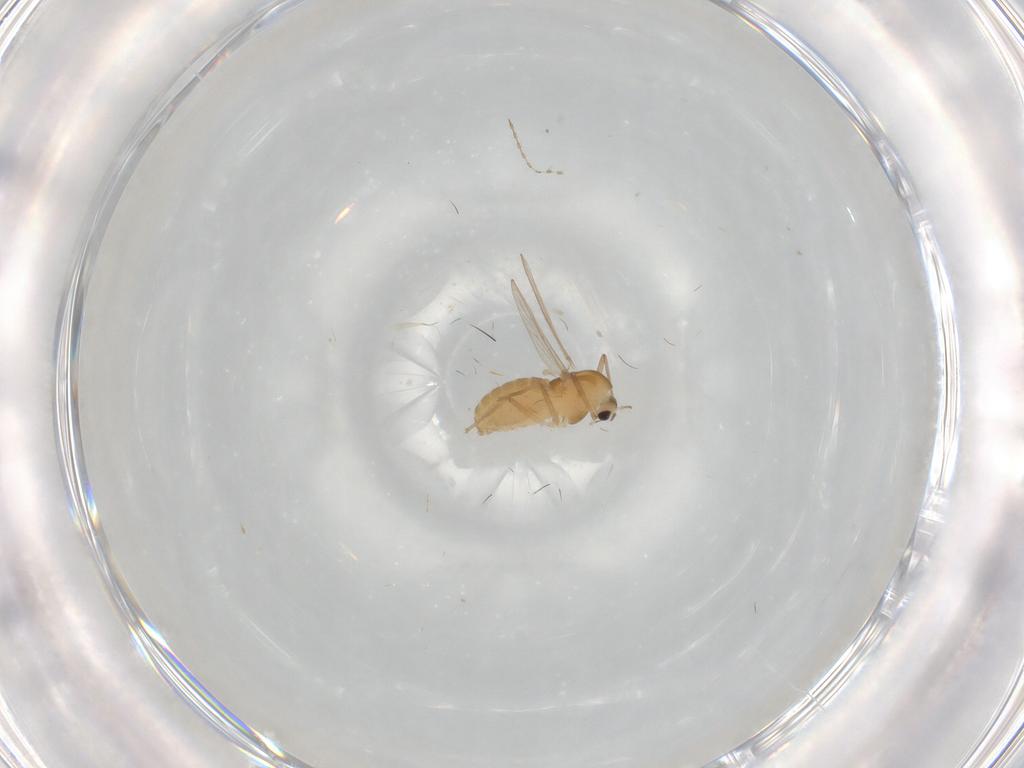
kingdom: Animalia
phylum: Arthropoda
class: Insecta
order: Diptera
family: Chironomidae
